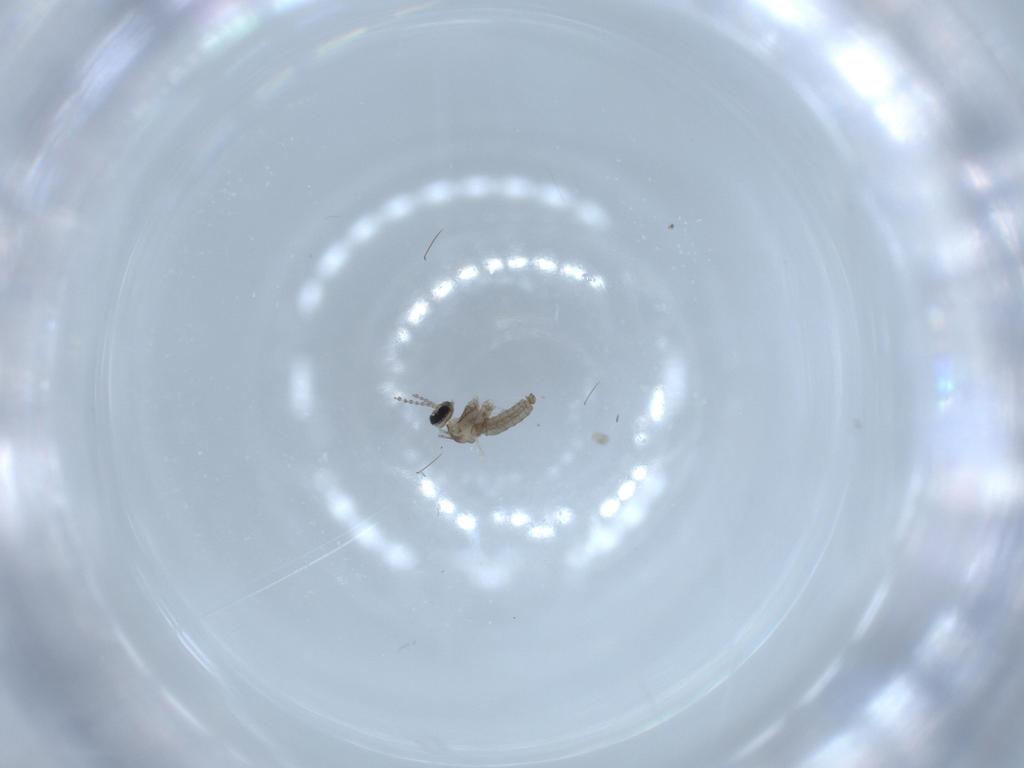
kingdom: Animalia
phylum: Arthropoda
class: Insecta
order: Diptera
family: Cecidomyiidae
